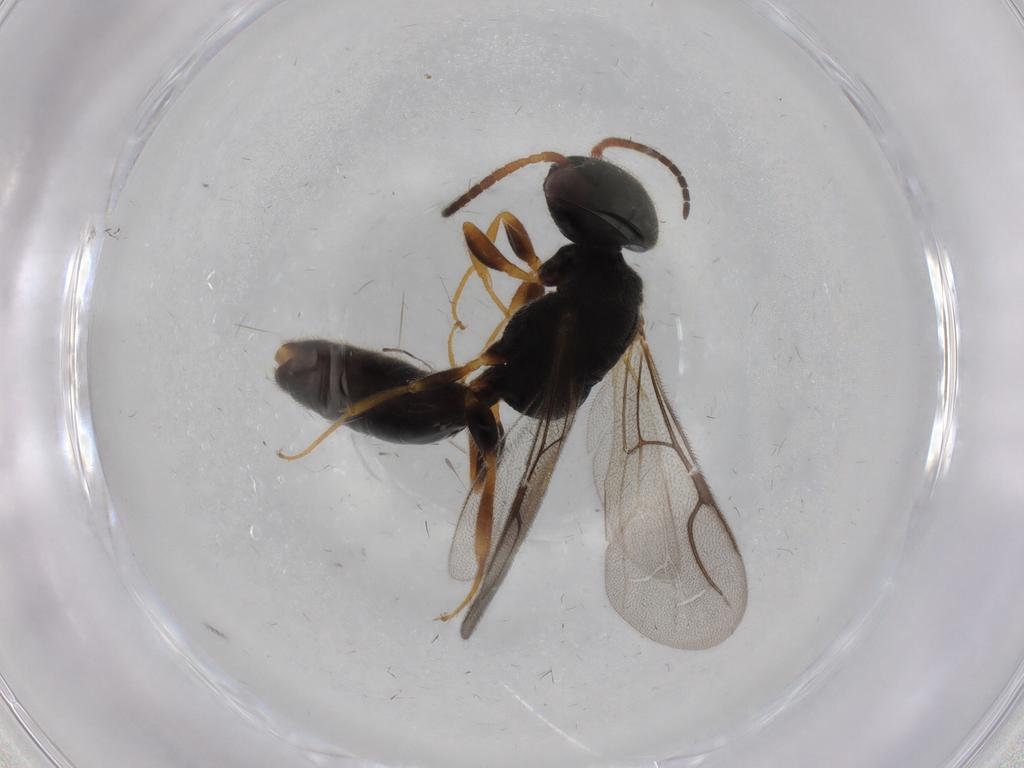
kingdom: Animalia
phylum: Arthropoda
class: Insecta
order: Hymenoptera
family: Bethylidae
